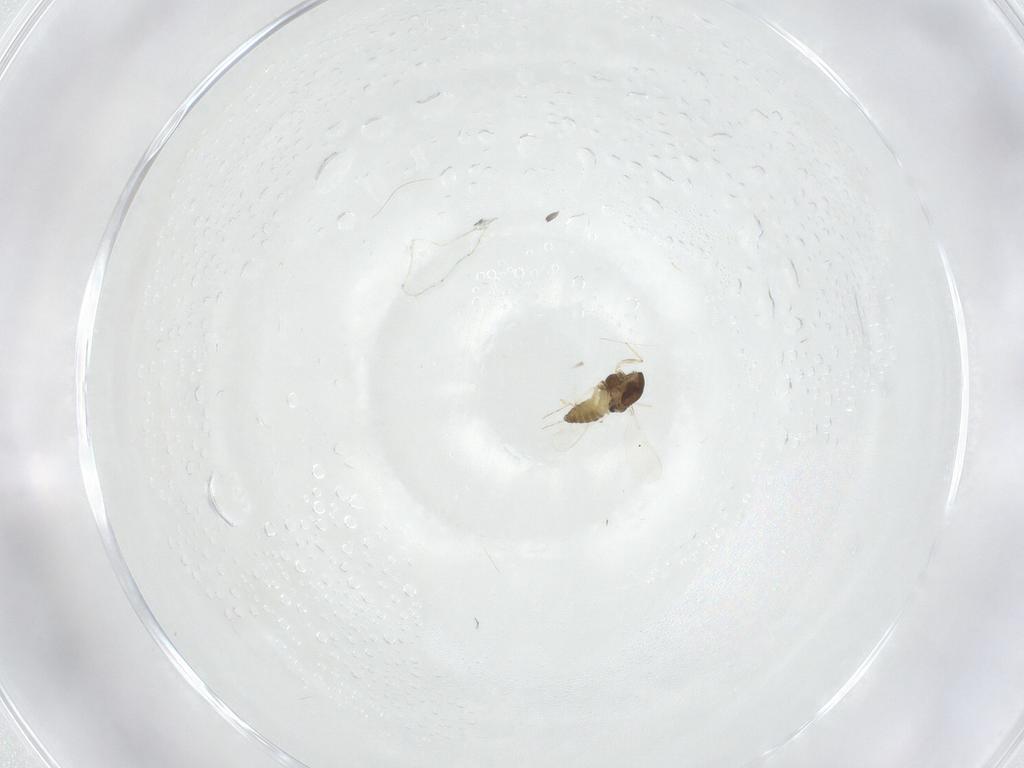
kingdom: Animalia
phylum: Arthropoda
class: Insecta
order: Diptera
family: Chironomidae
